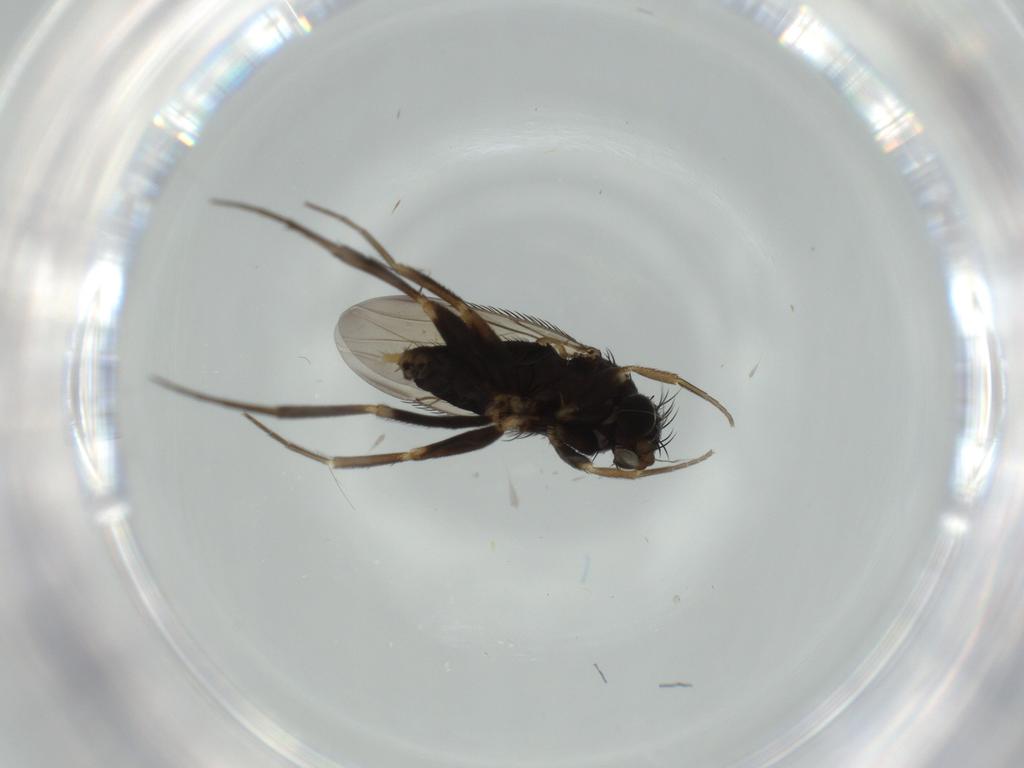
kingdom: Animalia
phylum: Arthropoda
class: Insecta
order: Diptera
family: Phoridae
